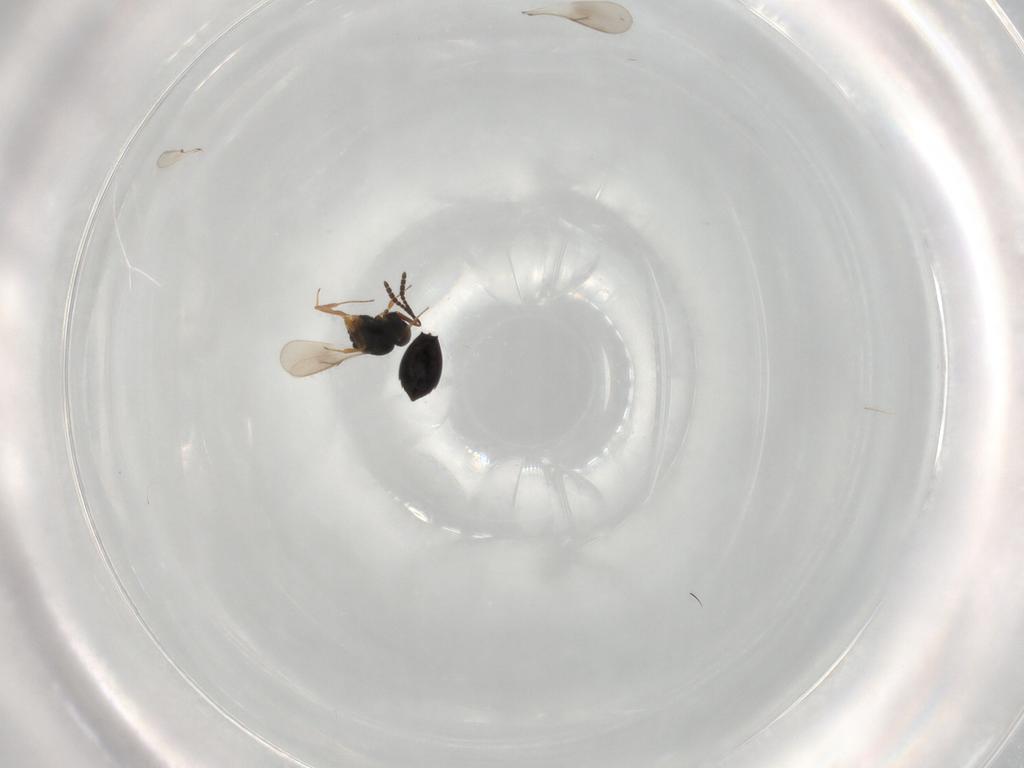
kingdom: Animalia
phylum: Arthropoda
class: Insecta
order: Hymenoptera
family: Scelionidae
